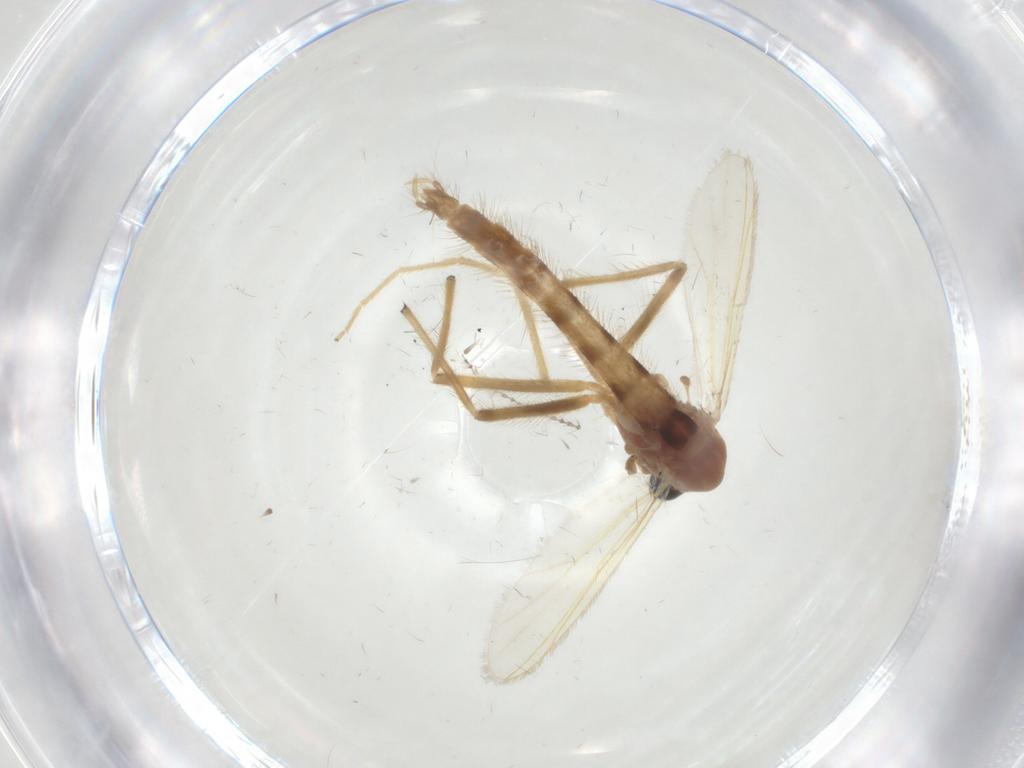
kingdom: Animalia
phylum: Arthropoda
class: Insecta
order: Diptera
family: Chironomidae
